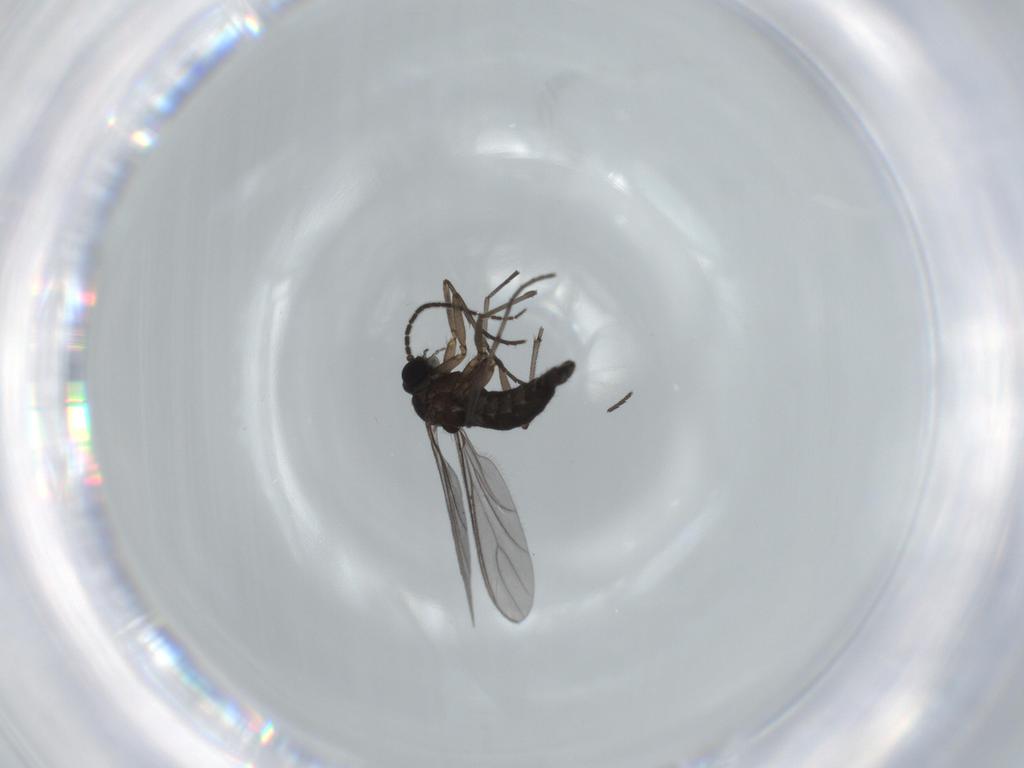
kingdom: Animalia
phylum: Arthropoda
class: Insecta
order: Diptera
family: Sciaridae
